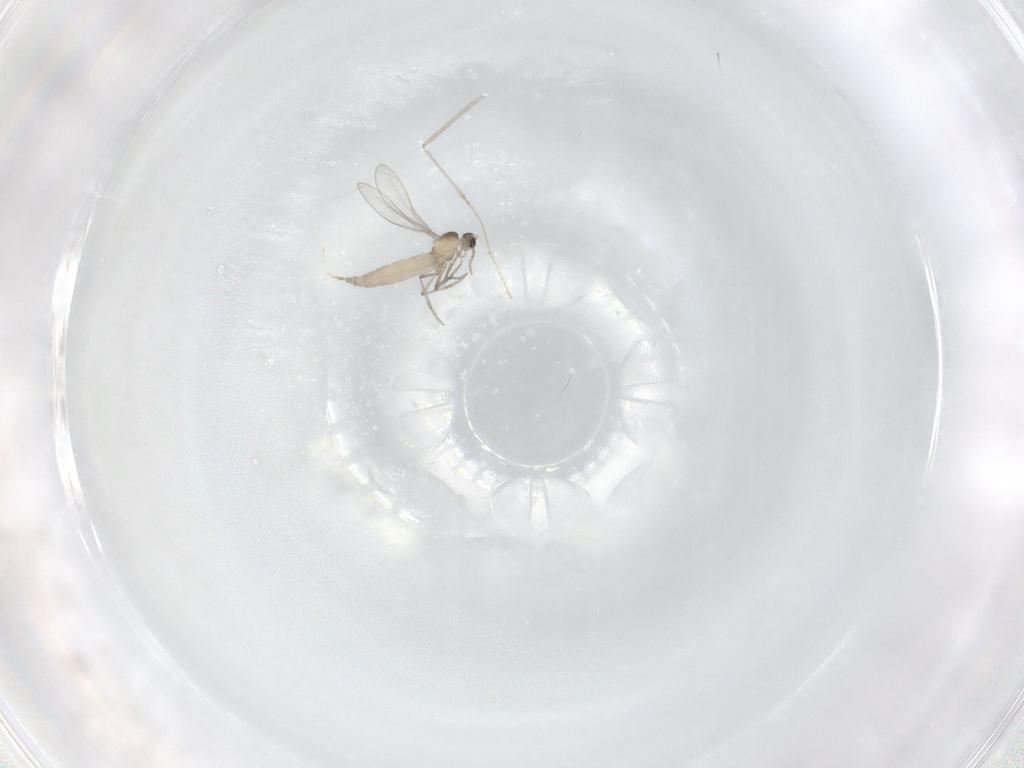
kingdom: Animalia
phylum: Arthropoda
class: Insecta
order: Diptera
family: Cecidomyiidae
